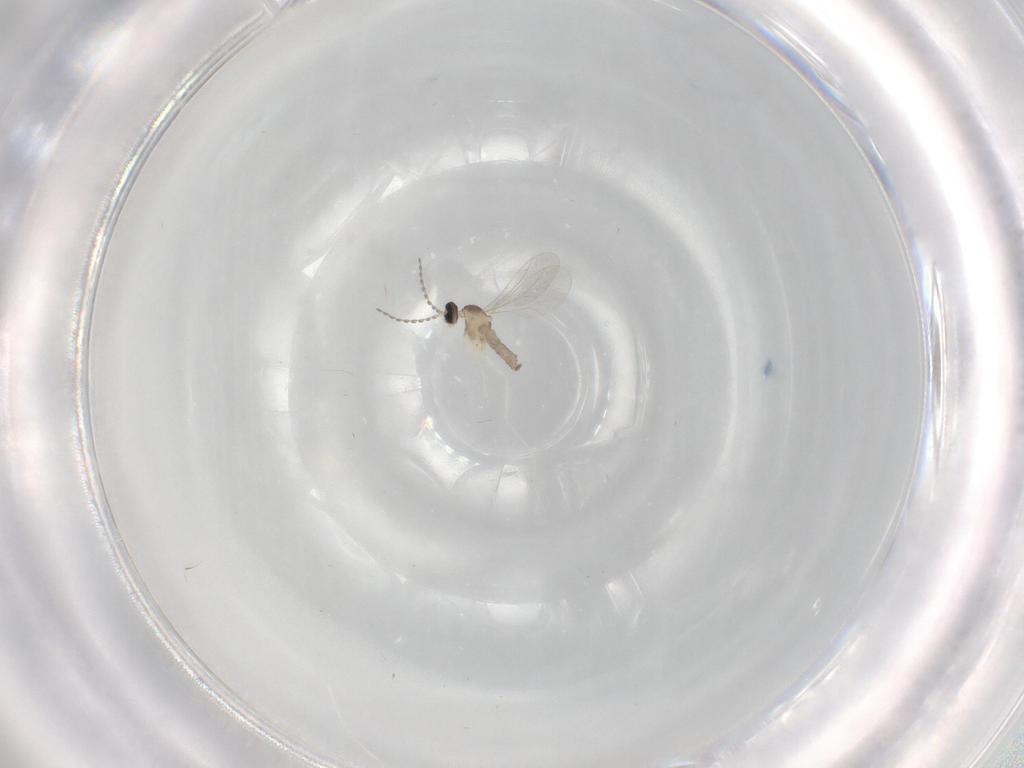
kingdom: Animalia
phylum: Arthropoda
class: Insecta
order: Diptera
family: Cecidomyiidae
